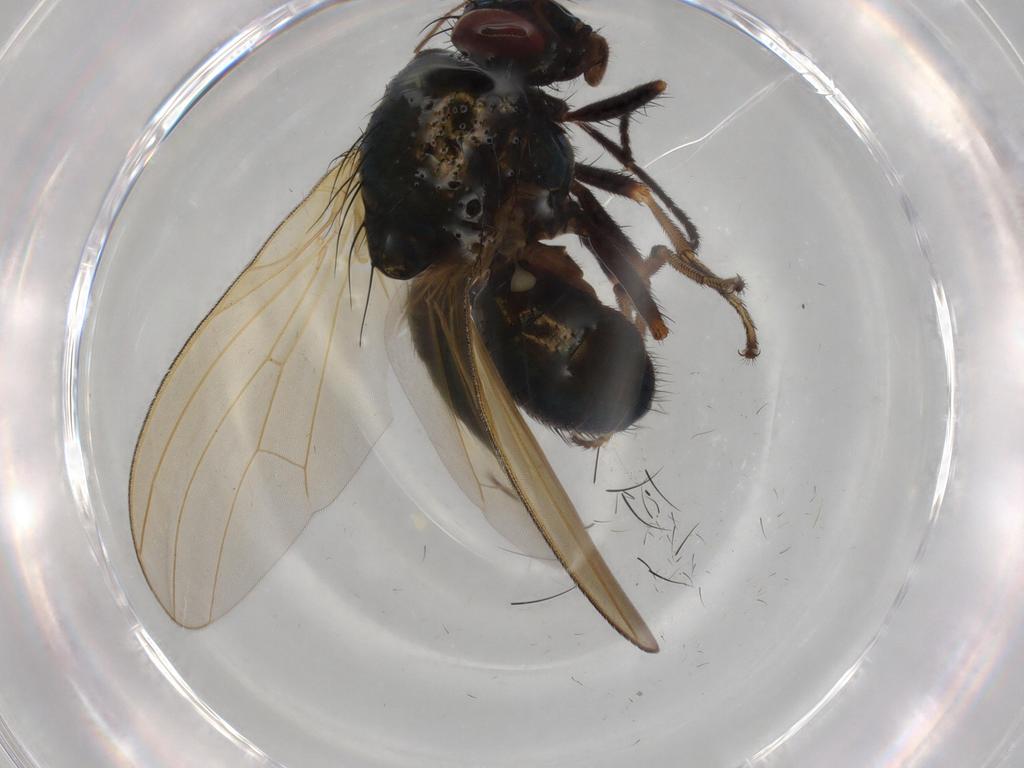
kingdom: Animalia
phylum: Arthropoda
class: Insecta
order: Diptera
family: Lauxaniidae
